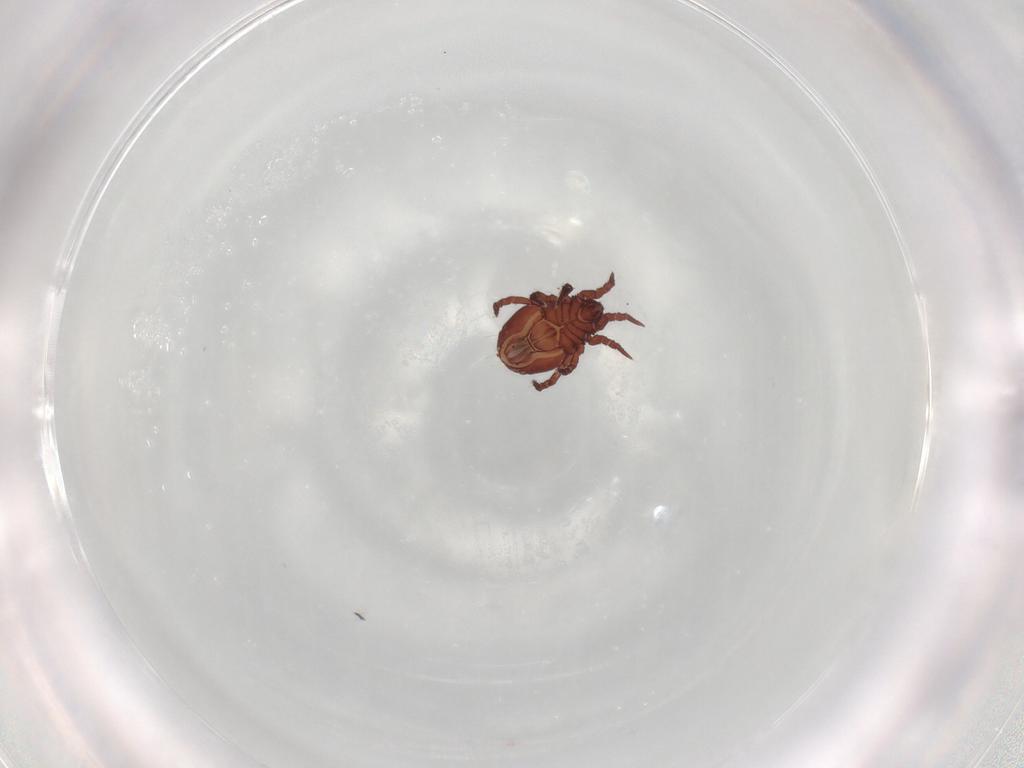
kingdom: Animalia
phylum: Arthropoda
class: Arachnida
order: Sarcoptiformes
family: Nothridae
